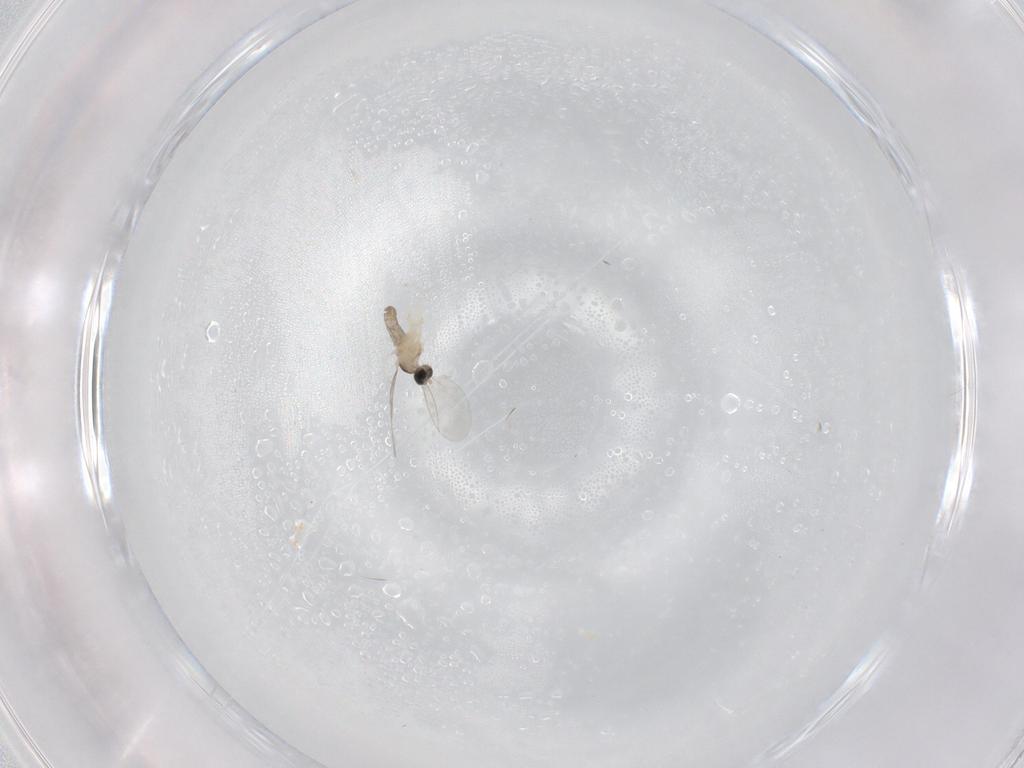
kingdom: Animalia
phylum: Arthropoda
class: Insecta
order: Diptera
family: Cecidomyiidae
